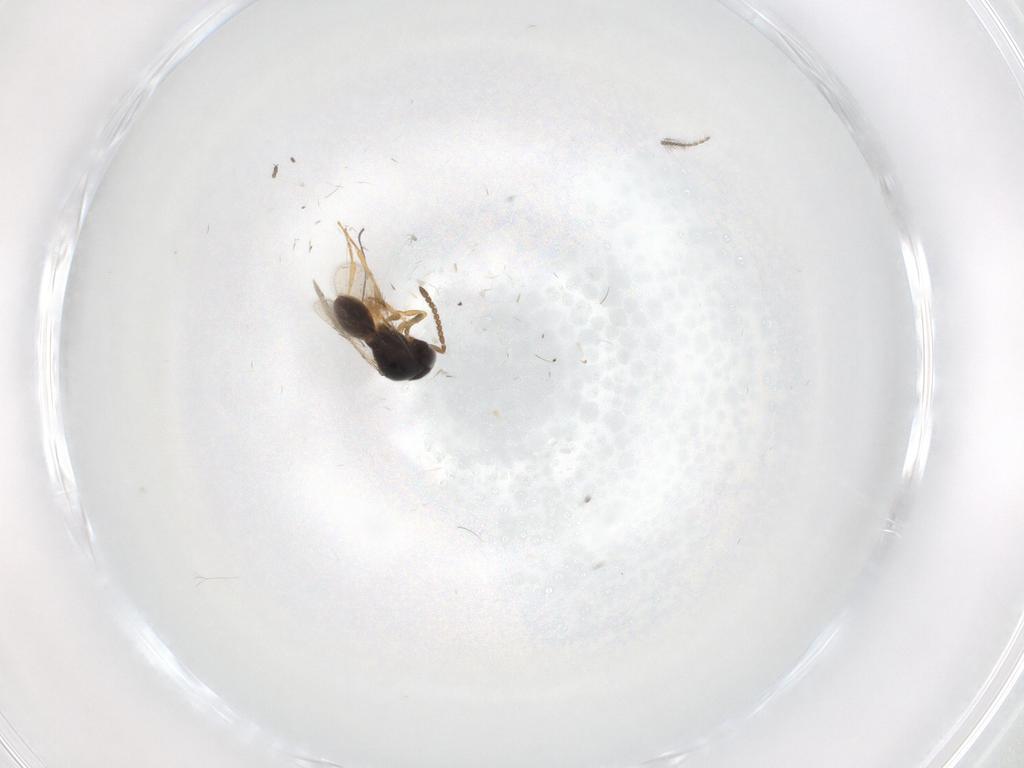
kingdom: Animalia
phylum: Arthropoda
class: Insecta
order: Hymenoptera
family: Scelionidae
